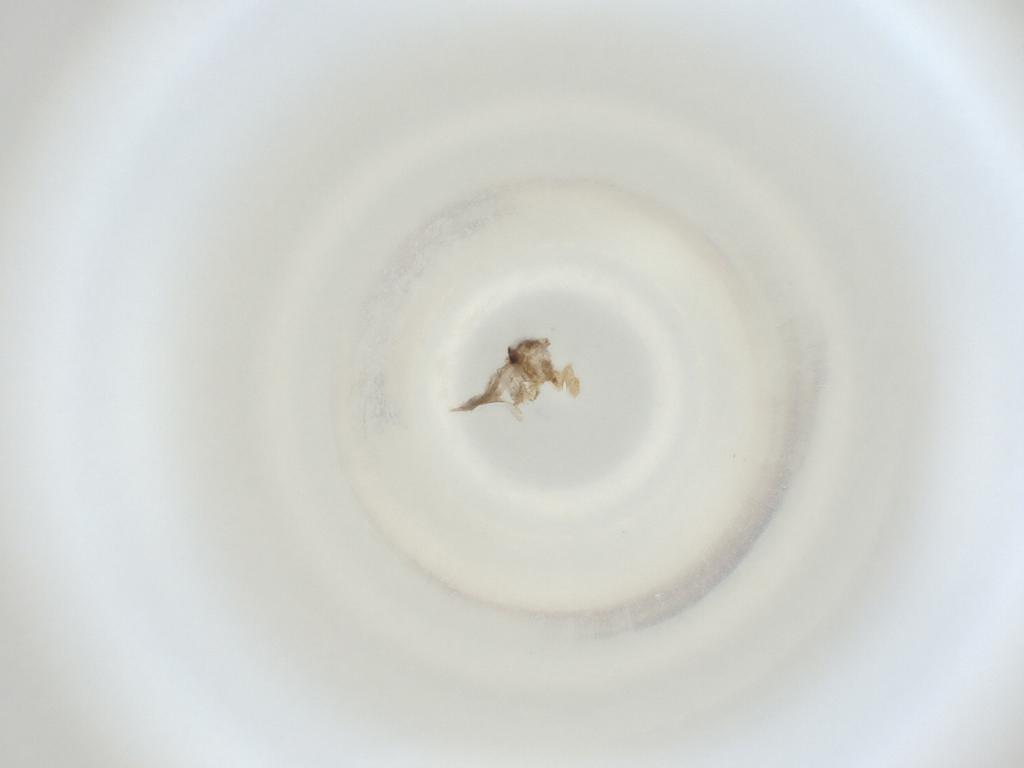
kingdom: Animalia
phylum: Arthropoda
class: Insecta
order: Diptera
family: Cecidomyiidae
